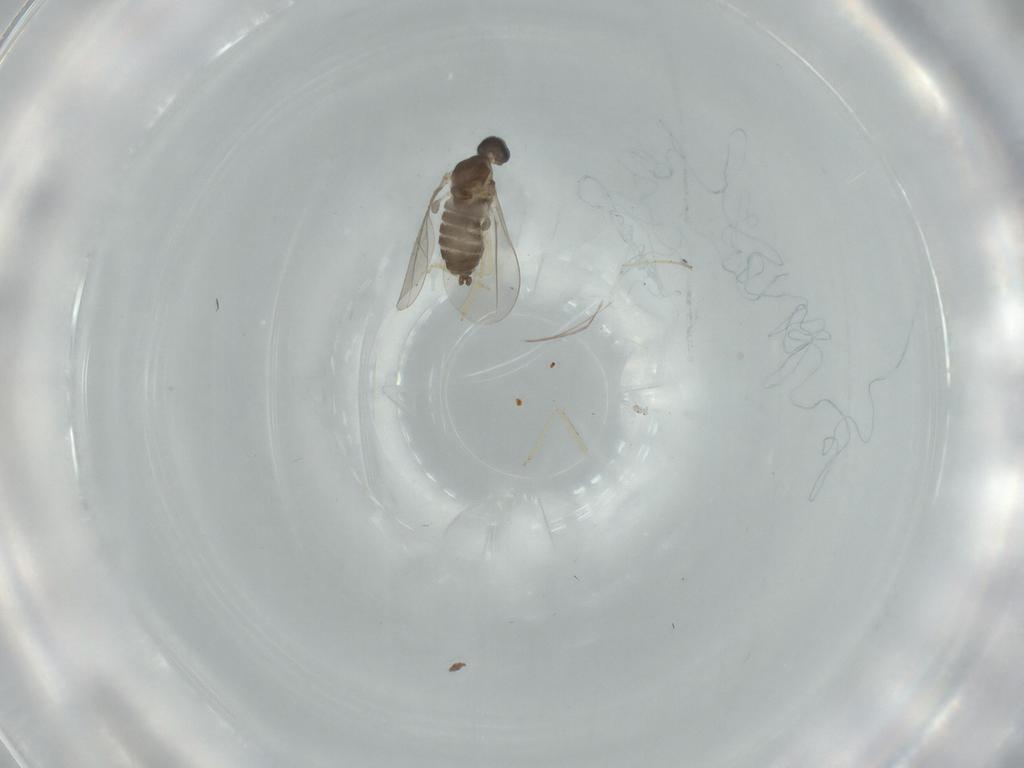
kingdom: Animalia
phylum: Arthropoda
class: Insecta
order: Diptera
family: Cecidomyiidae
